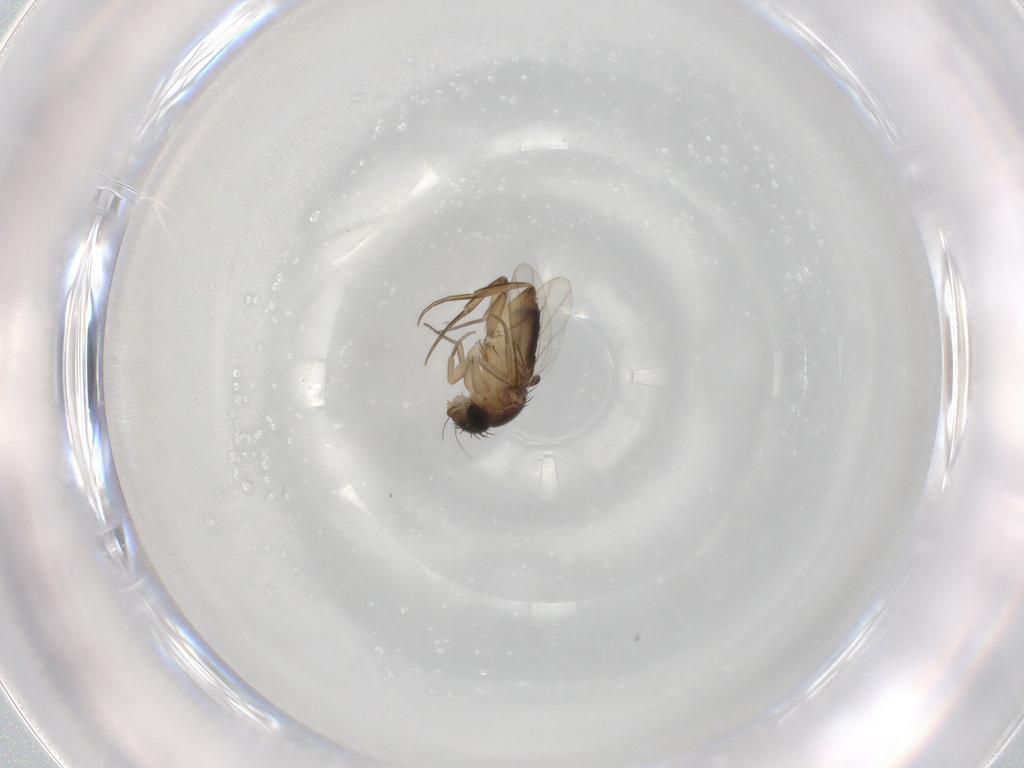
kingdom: Animalia
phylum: Arthropoda
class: Insecta
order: Diptera
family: Phoridae
